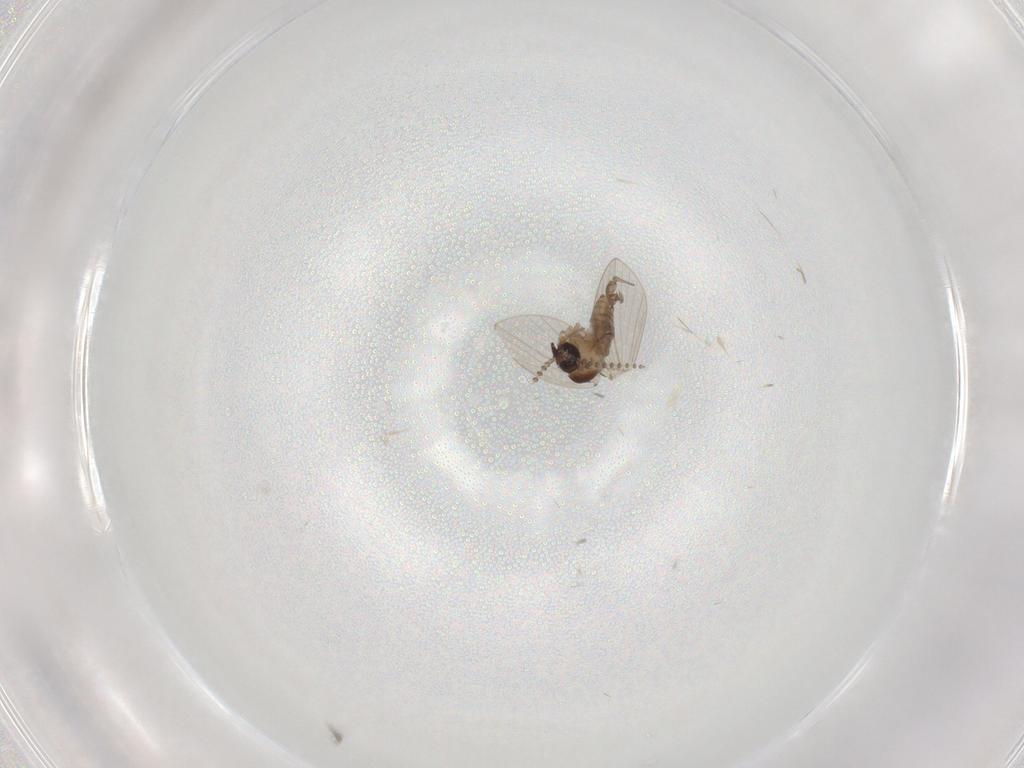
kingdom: Animalia
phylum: Arthropoda
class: Insecta
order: Diptera
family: Psychodidae
